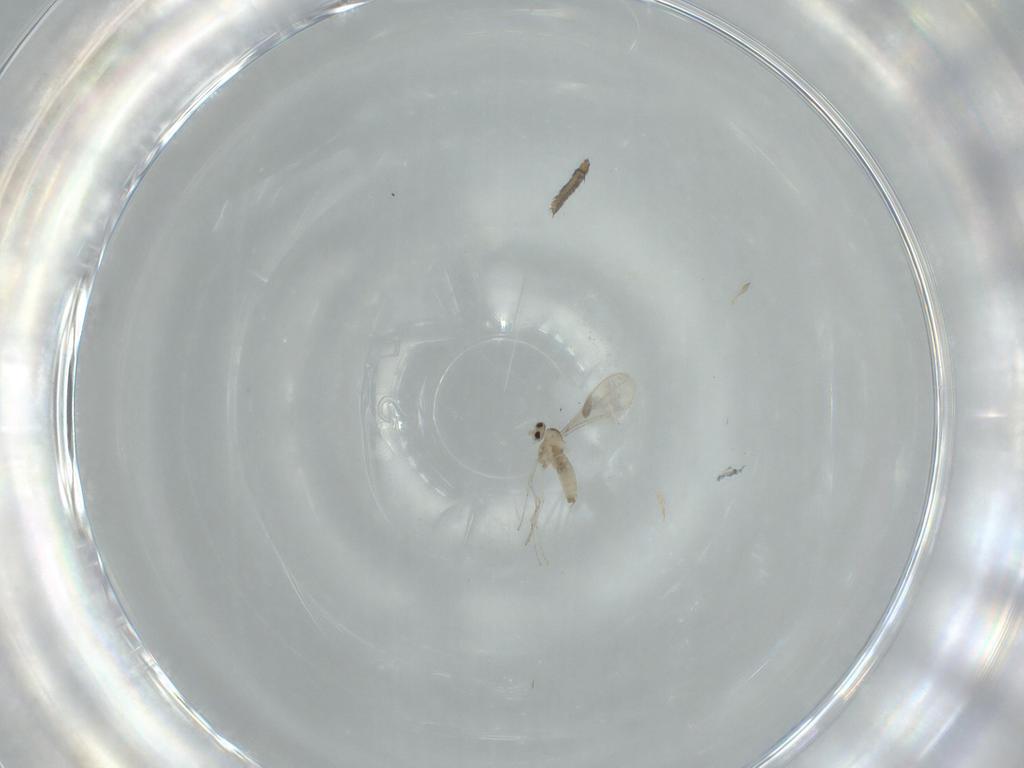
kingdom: Animalia
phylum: Arthropoda
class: Insecta
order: Diptera
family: Cecidomyiidae
